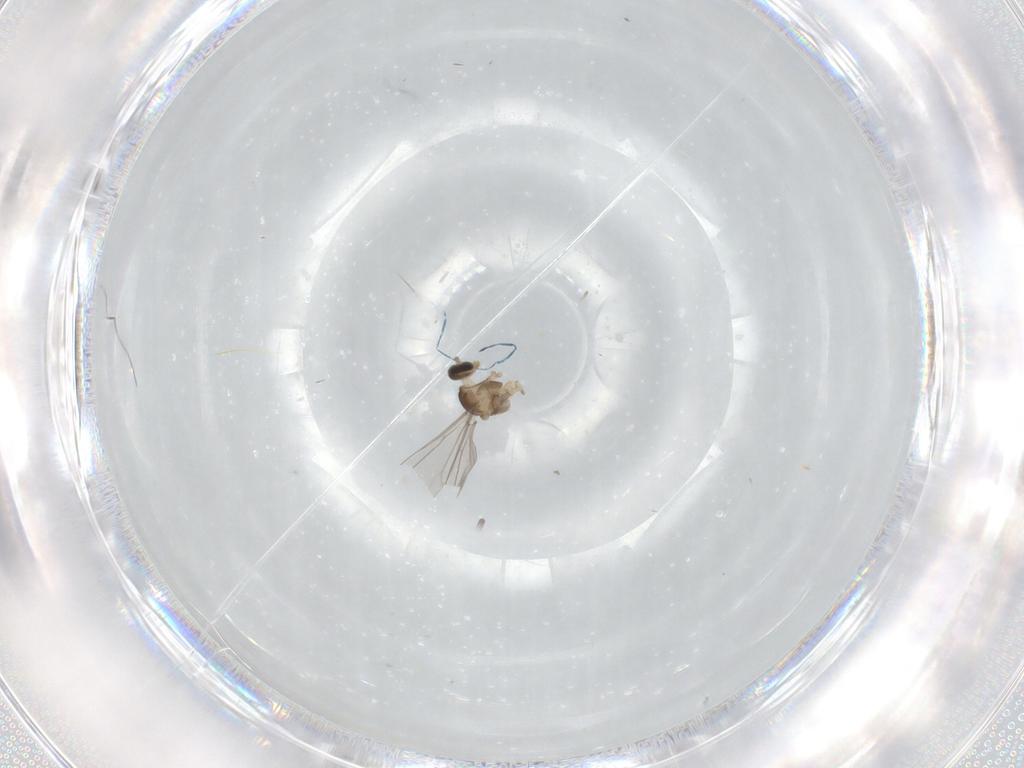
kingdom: Animalia
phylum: Arthropoda
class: Insecta
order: Diptera
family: Cecidomyiidae
